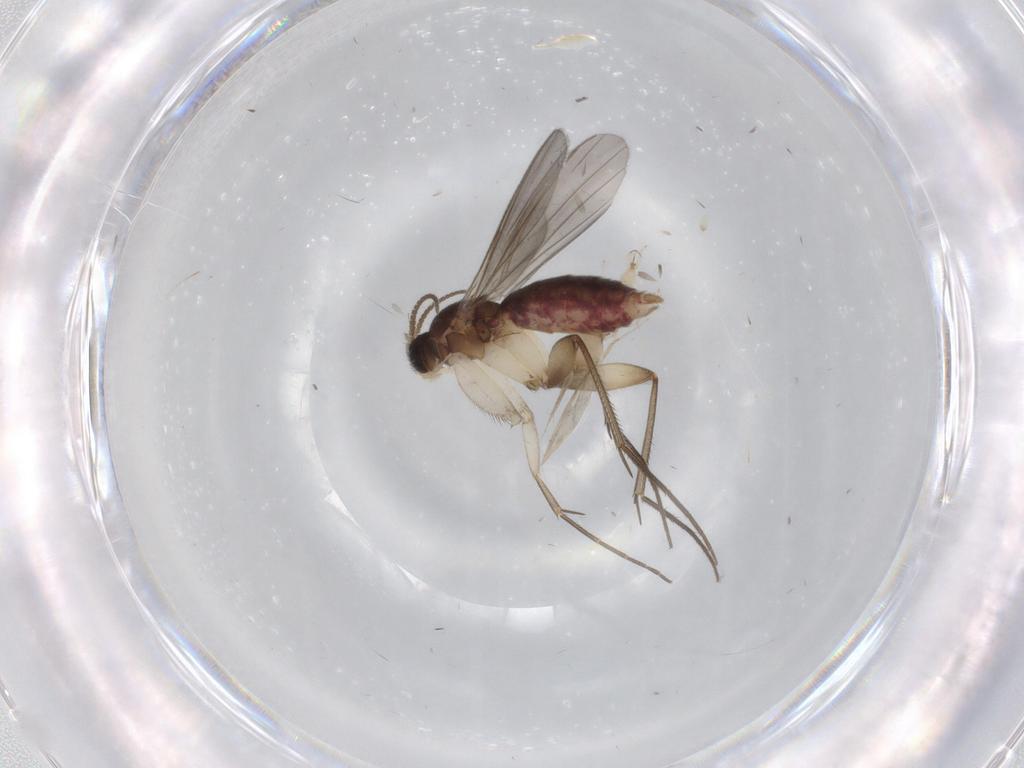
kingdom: Animalia
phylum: Arthropoda
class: Insecta
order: Diptera
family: Mycetophilidae
